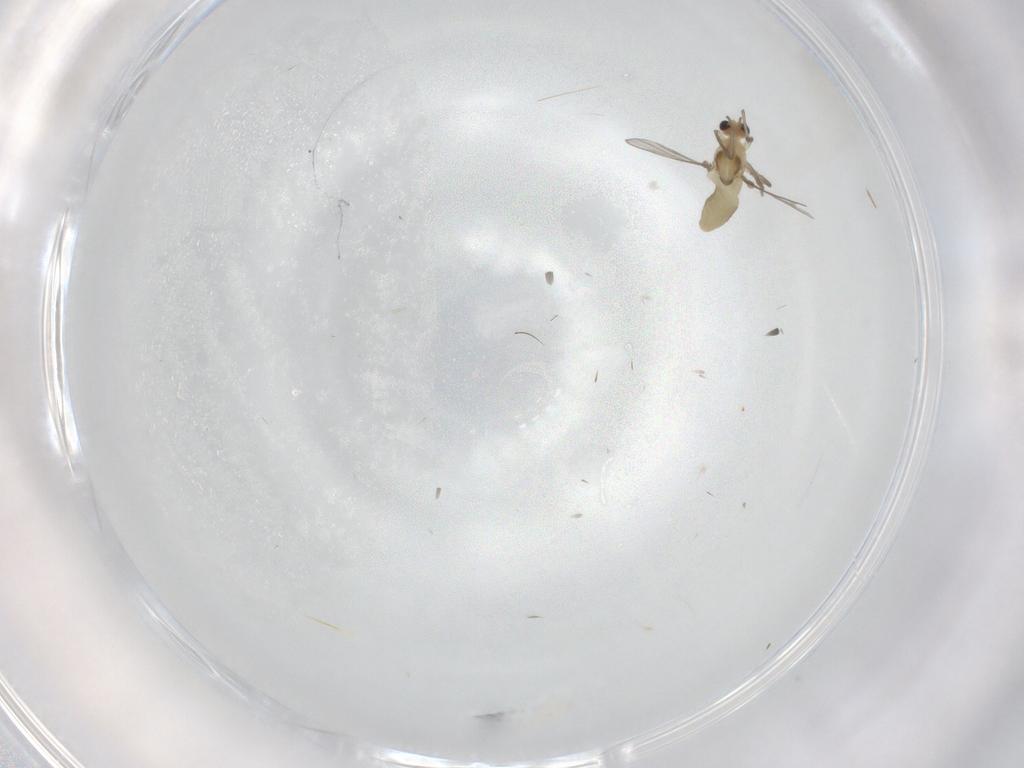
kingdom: Animalia
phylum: Arthropoda
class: Insecta
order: Diptera
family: Chironomidae
